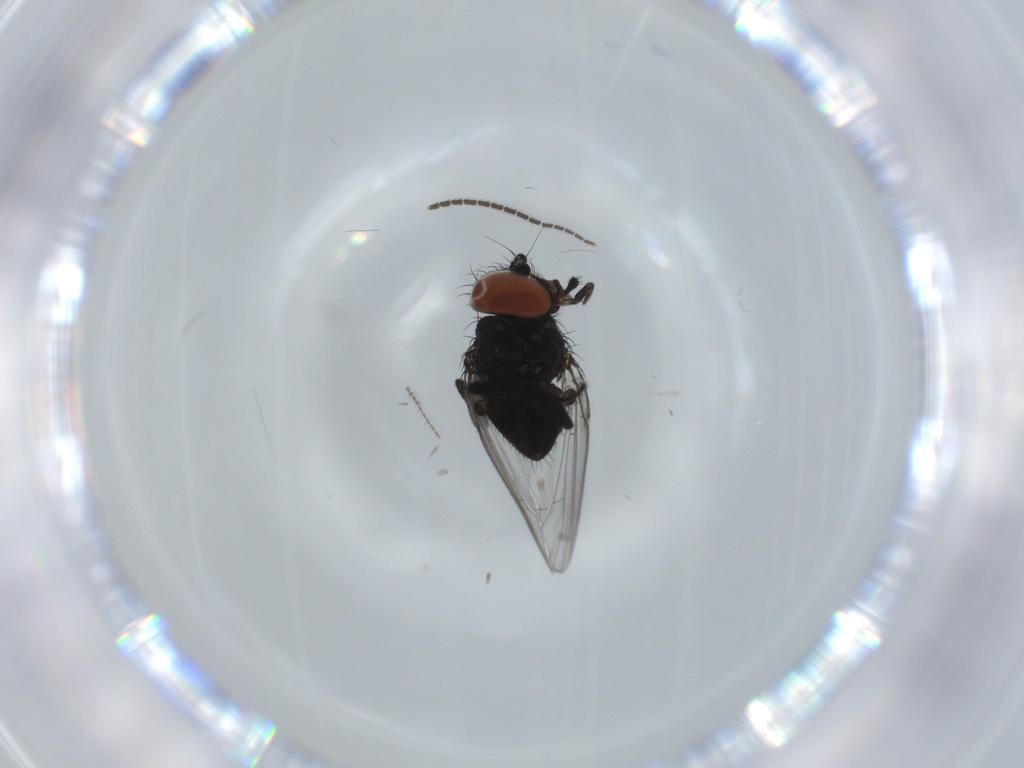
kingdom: Animalia
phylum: Arthropoda
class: Insecta
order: Diptera
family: Sciaridae
